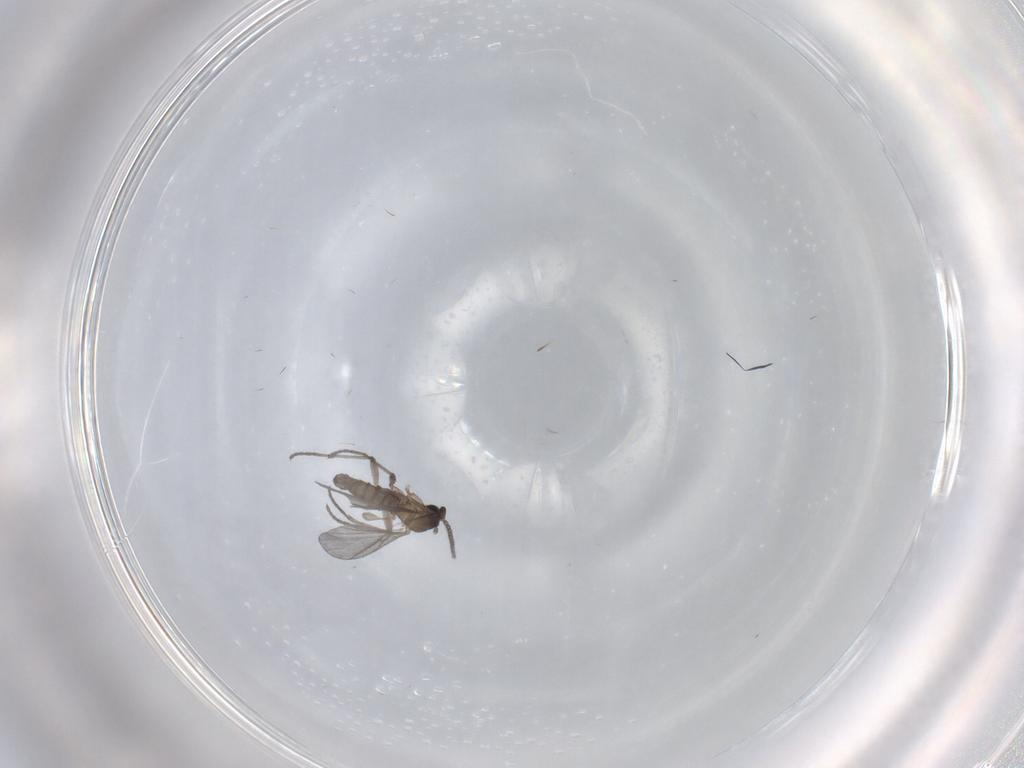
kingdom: Animalia
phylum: Arthropoda
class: Insecta
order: Diptera
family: Sciaridae
